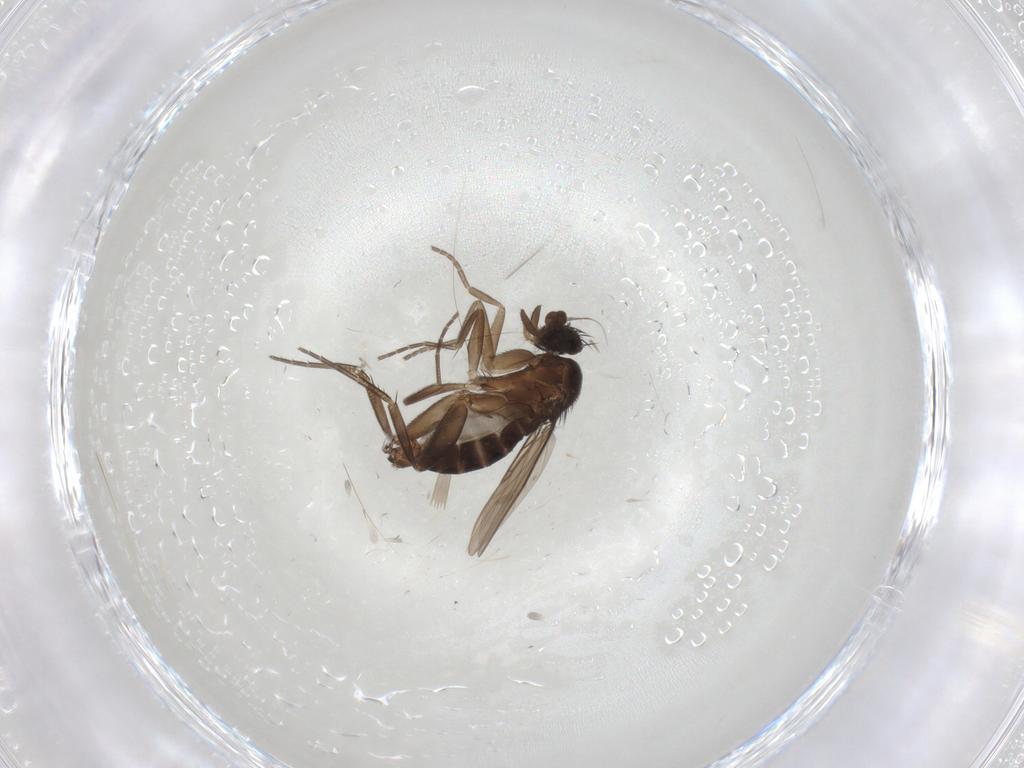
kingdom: Animalia
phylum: Arthropoda
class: Insecta
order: Diptera
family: Phoridae
